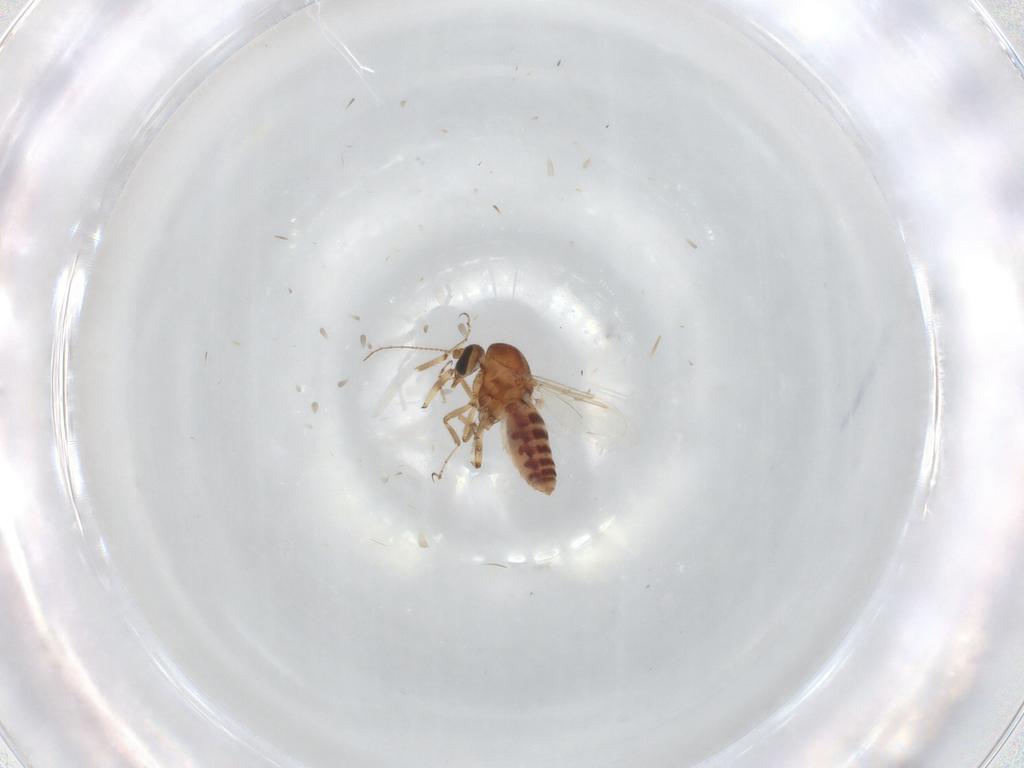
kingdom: Animalia
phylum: Arthropoda
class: Insecta
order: Diptera
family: Ceratopogonidae
